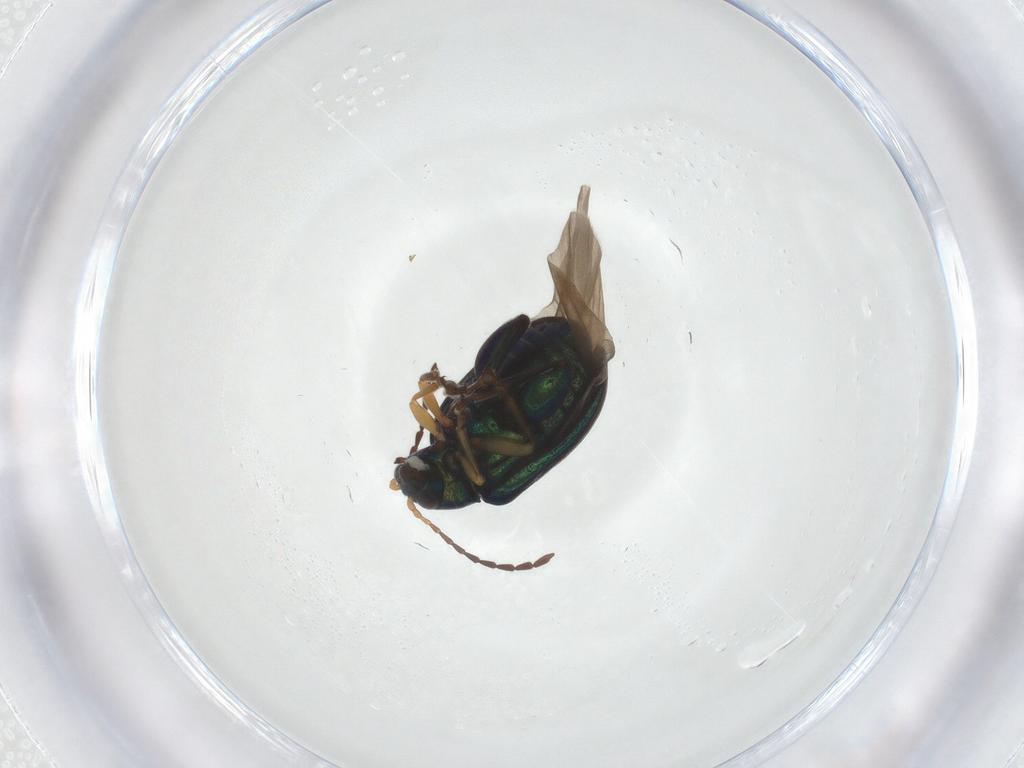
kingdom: Animalia
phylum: Arthropoda
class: Insecta
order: Coleoptera
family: Chrysomelidae
